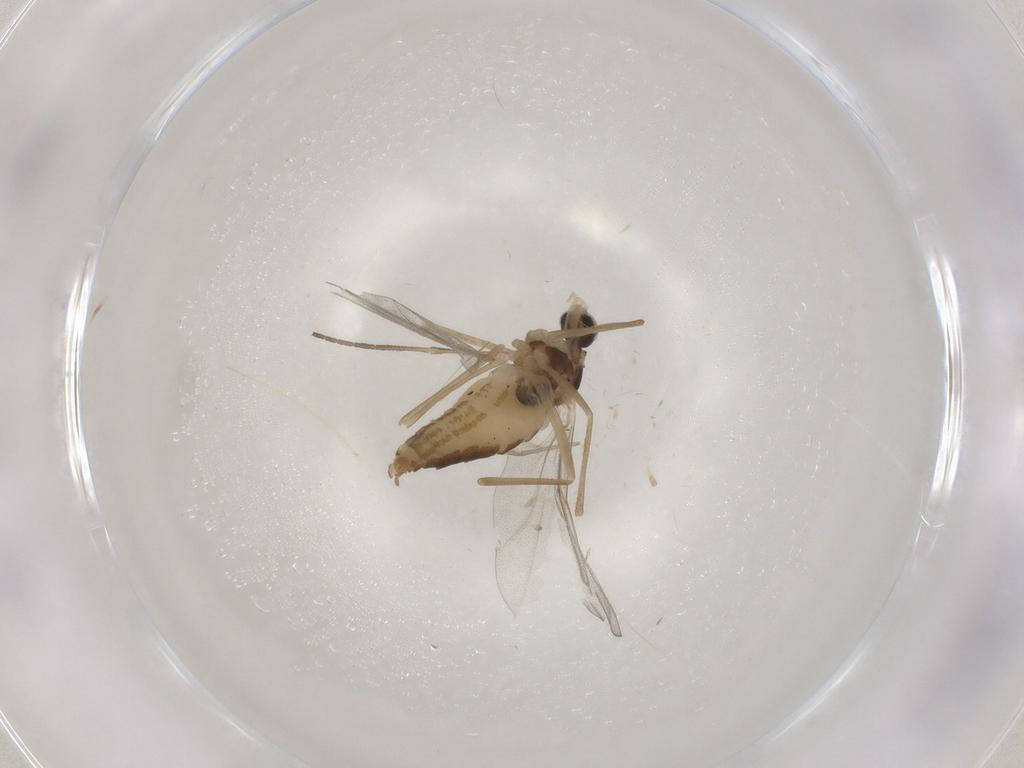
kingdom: Animalia
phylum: Arthropoda
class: Insecta
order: Diptera
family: Cecidomyiidae
